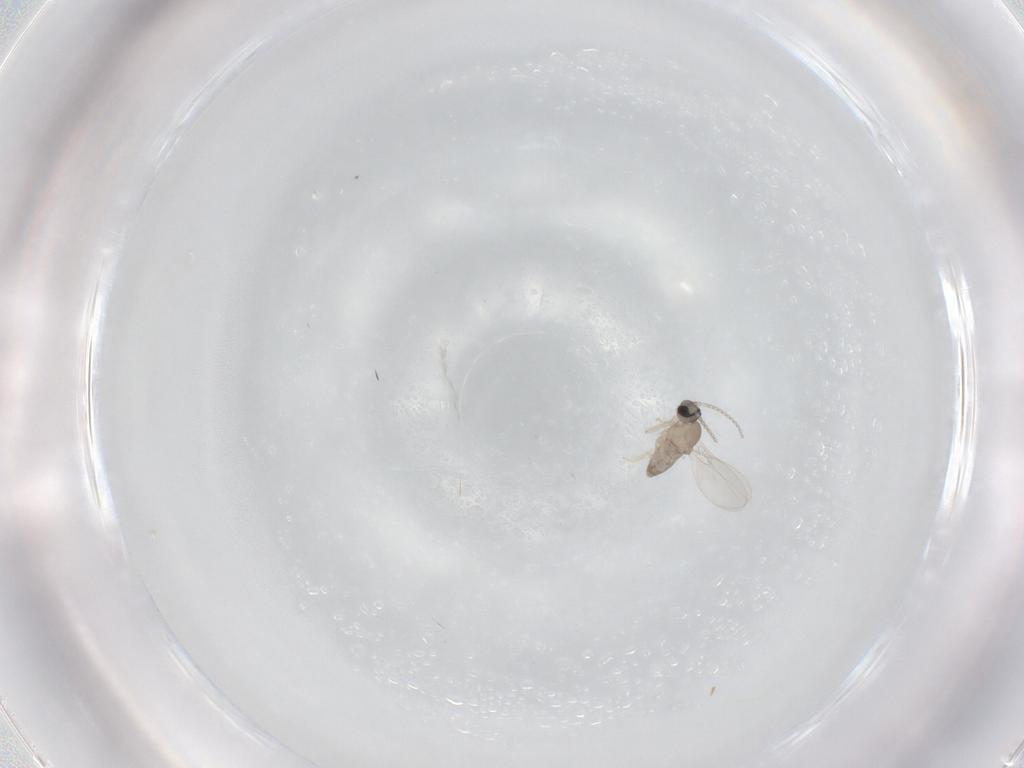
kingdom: Animalia
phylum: Arthropoda
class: Insecta
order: Diptera
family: Cecidomyiidae
